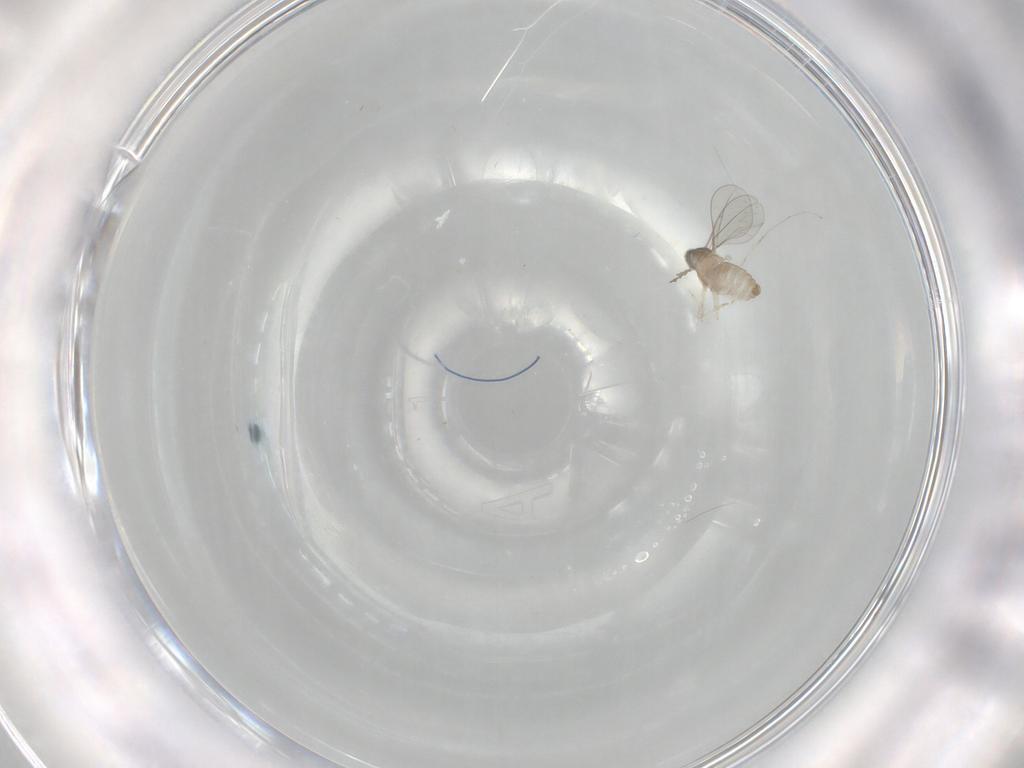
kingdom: Animalia
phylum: Arthropoda
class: Insecta
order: Diptera
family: Cecidomyiidae
